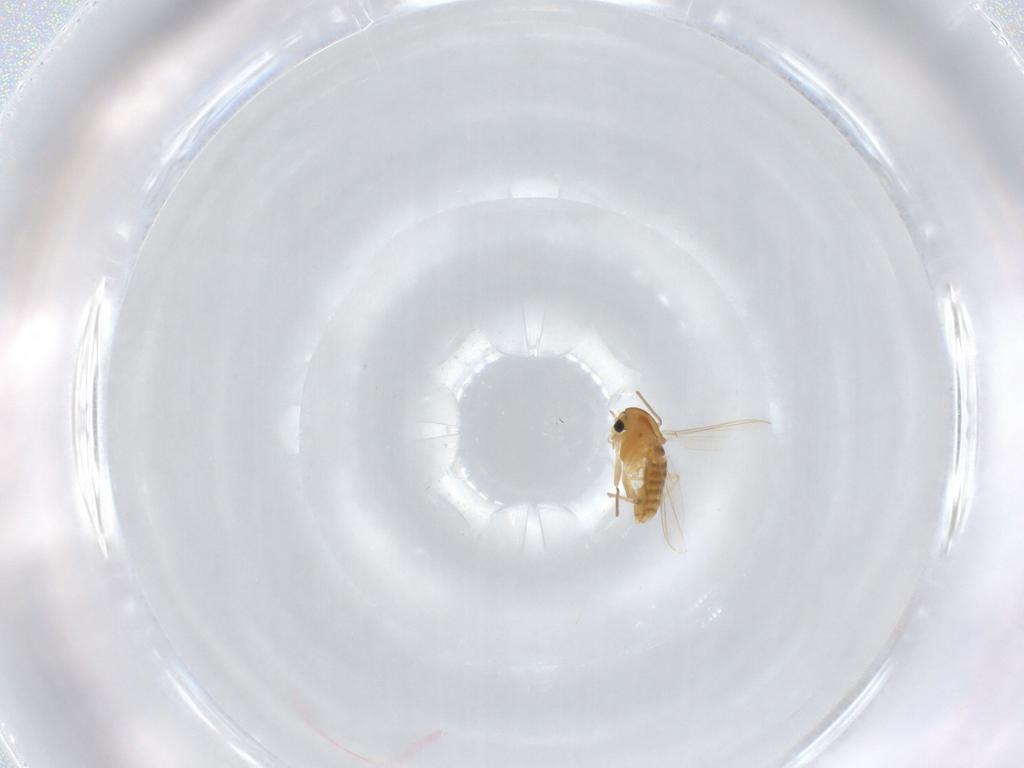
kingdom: Animalia
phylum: Arthropoda
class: Insecta
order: Diptera
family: Chironomidae
